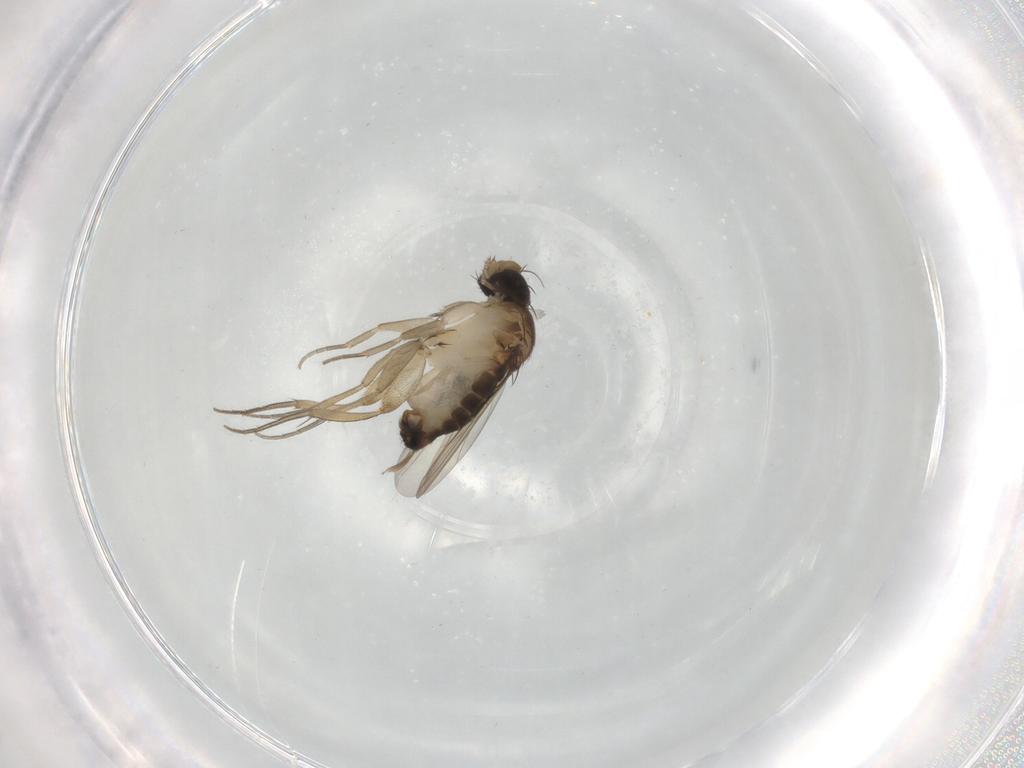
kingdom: Animalia
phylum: Arthropoda
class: Insecta
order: Diptera
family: Phoridae
